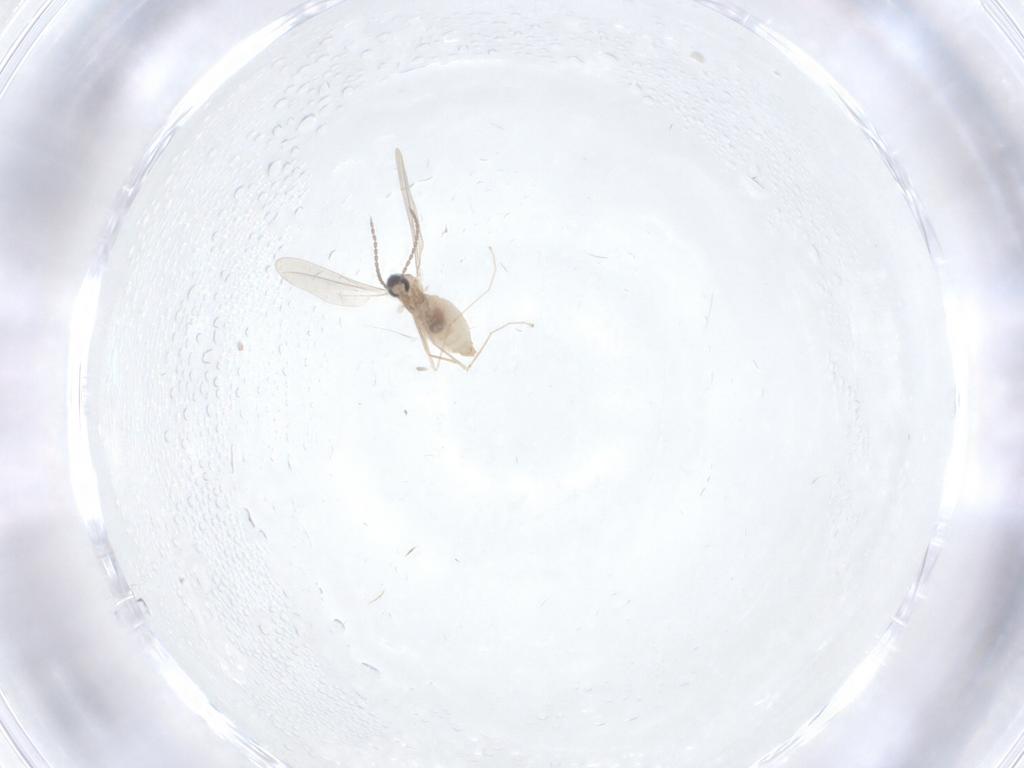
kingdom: Animalia
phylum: Arthropoda
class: Insecta
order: Diptera
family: Cecidomyiidae
